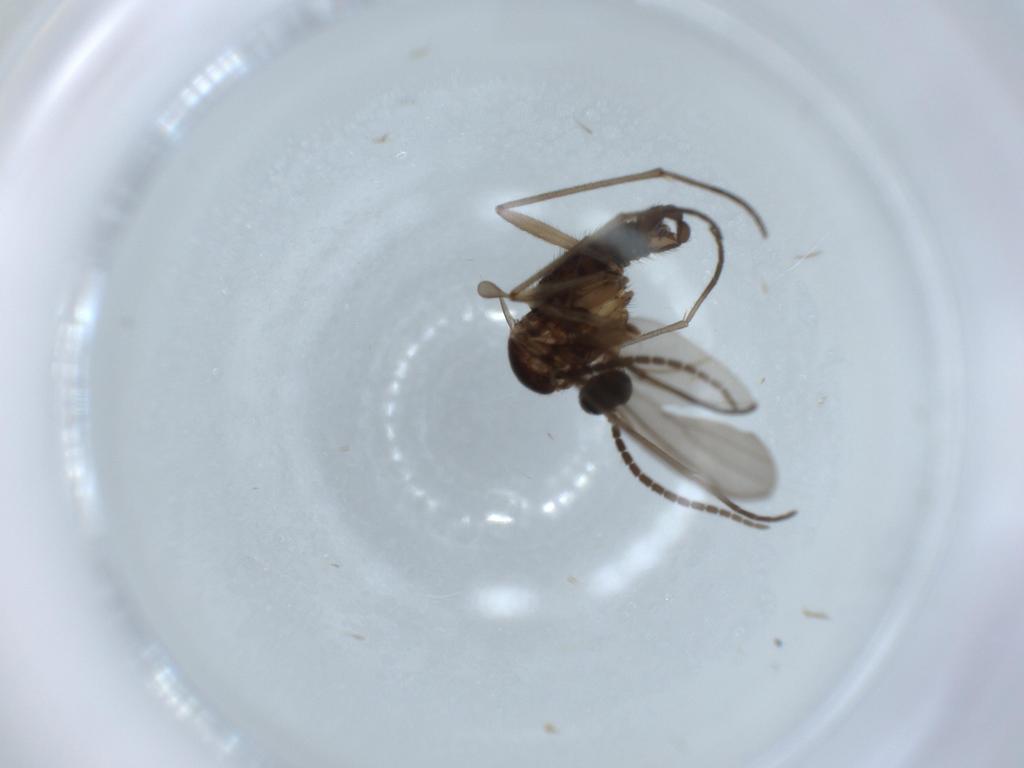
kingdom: Animalia
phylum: Arthropoda
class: Insecta
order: Diptera
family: Sciaridae
